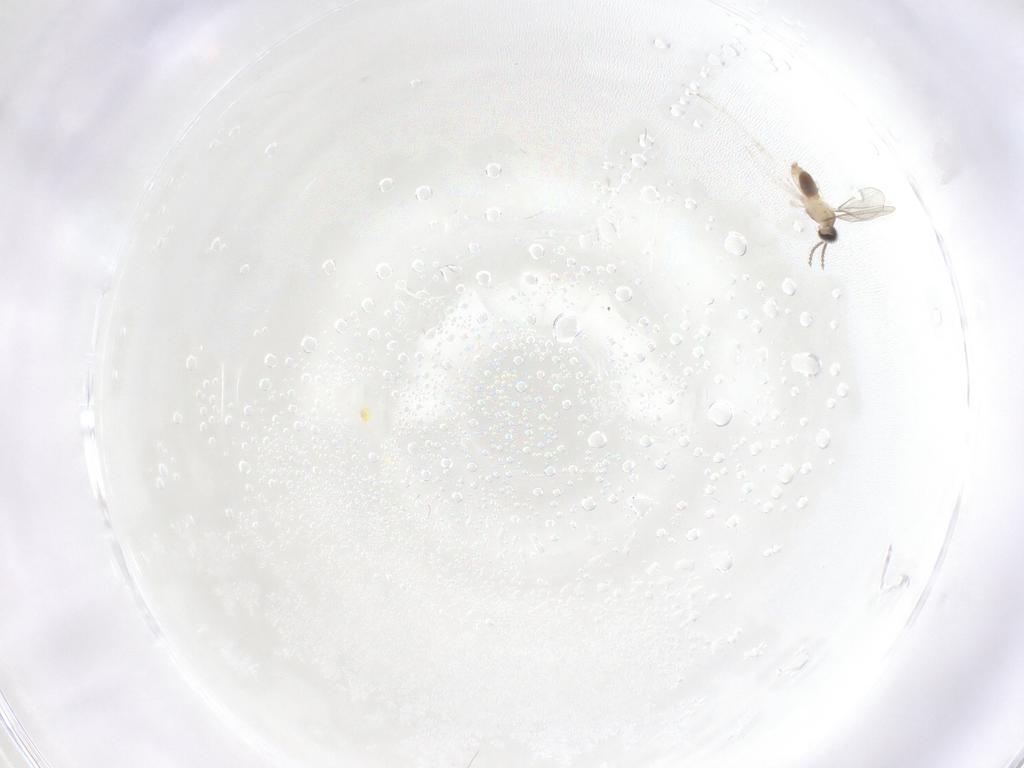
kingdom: Animalia
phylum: Arthropoda
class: Insecta
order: Diptera
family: Cecidomyiidae
